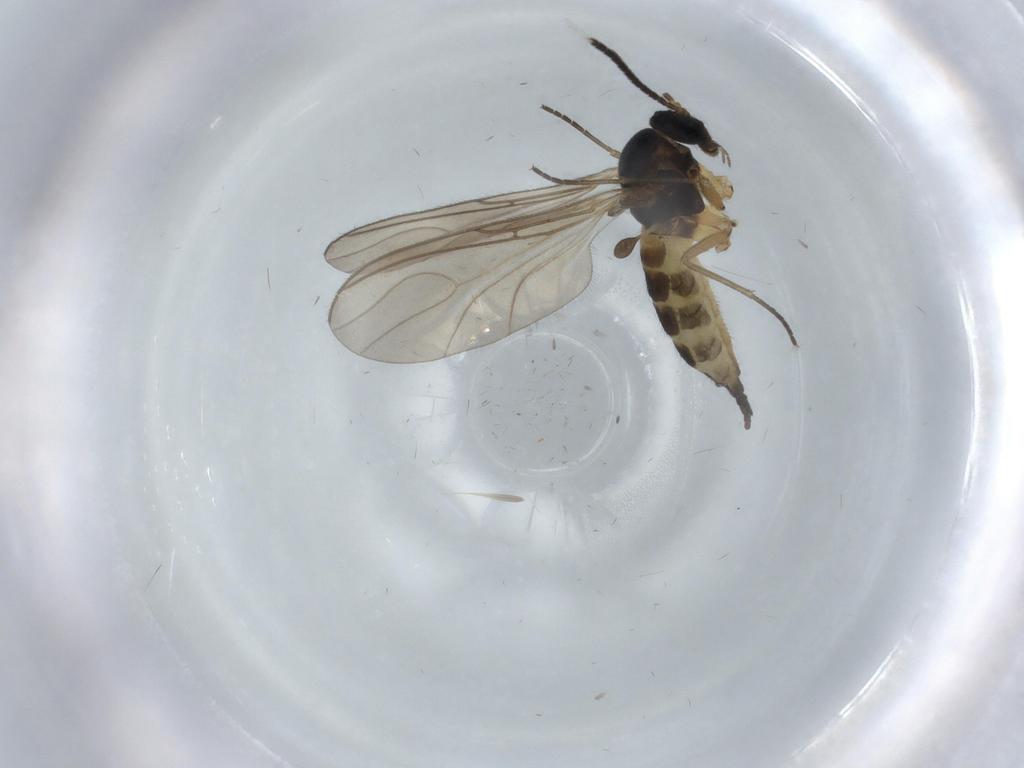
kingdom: Animalia
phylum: Arthropoda
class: Insecta
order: Diptera
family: Sciaridae
